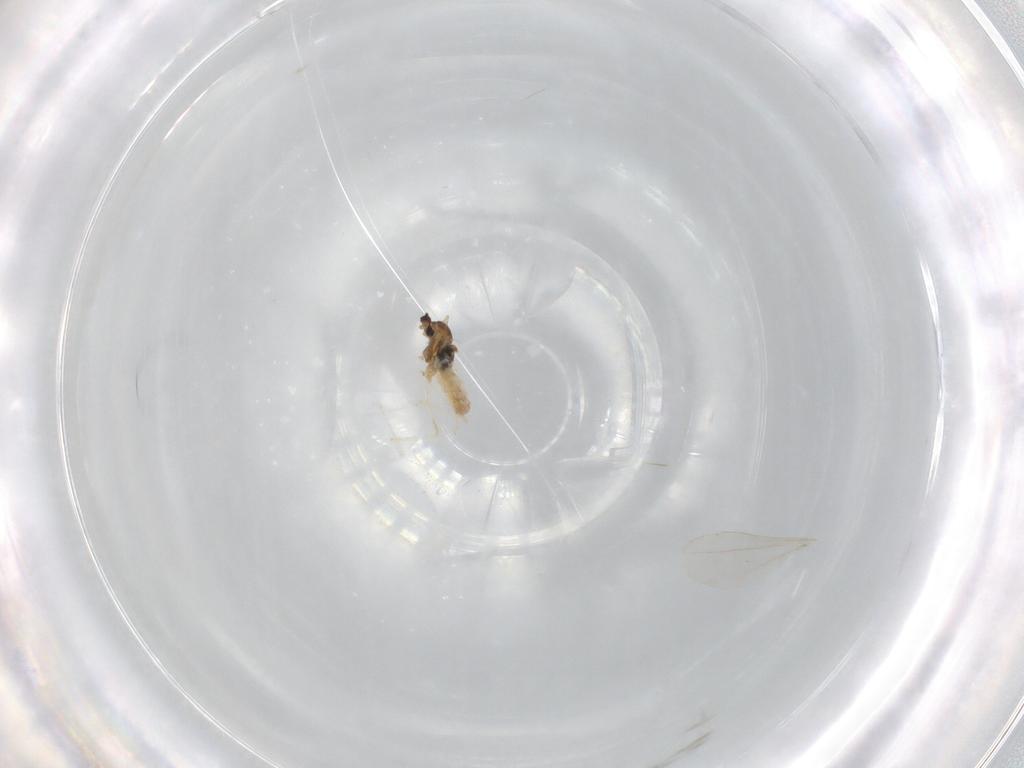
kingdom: Animalia
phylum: Arthropoda
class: Insecta
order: Diptera
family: Cecidomyiidae
